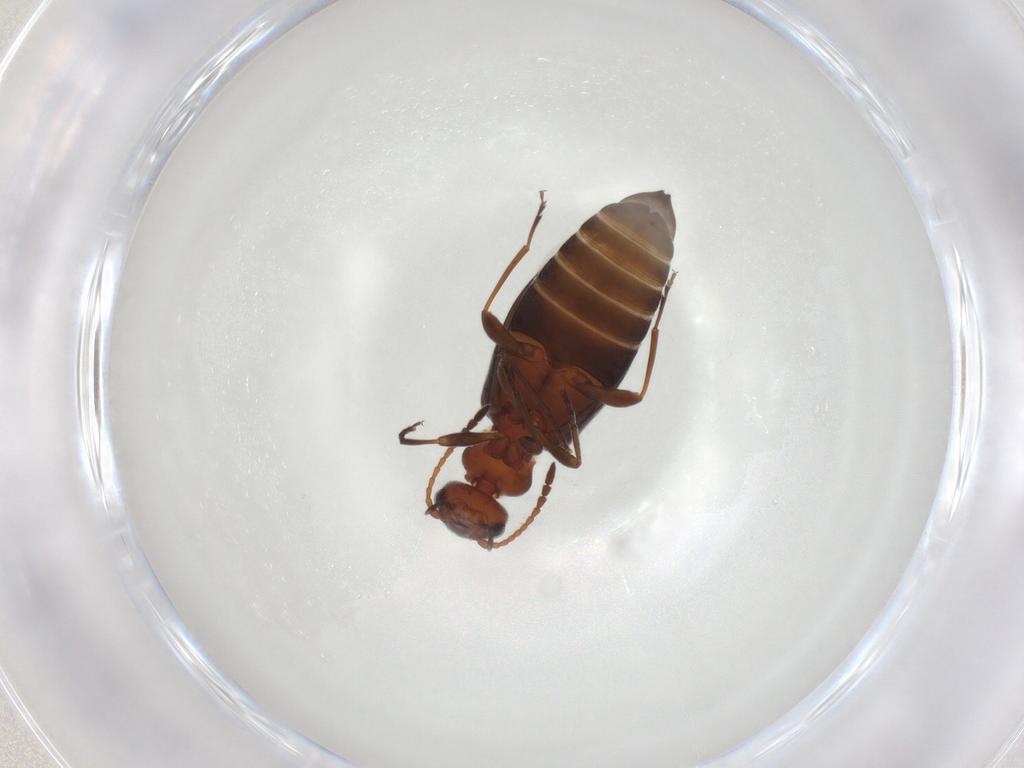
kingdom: Animalia
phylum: Arthropoda
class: Insecta
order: Coleoptera
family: Anthicidae
